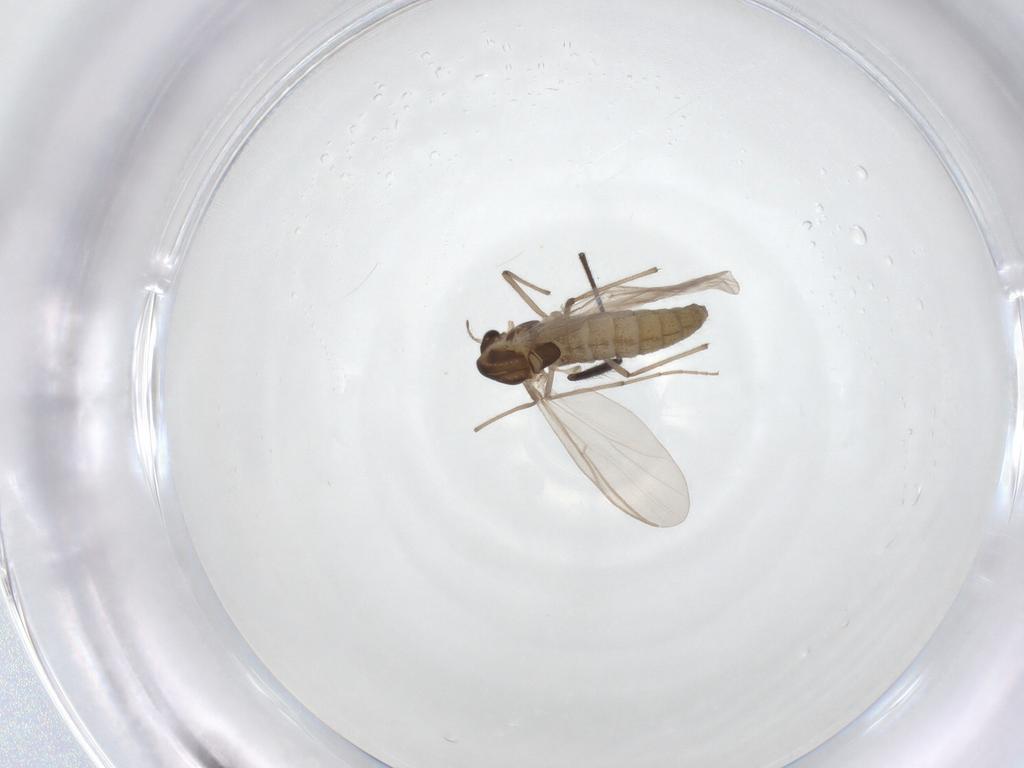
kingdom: Animalia
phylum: Arthropoda
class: Insecta
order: Diptera
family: Chironomidae
